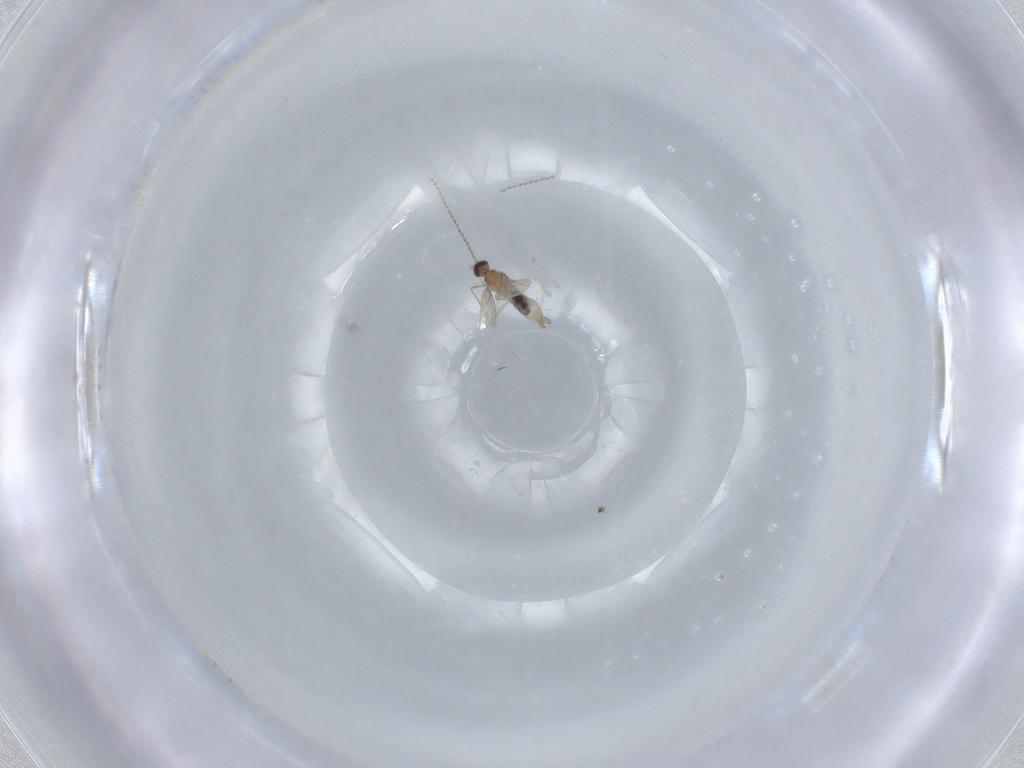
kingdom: Animalia
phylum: Arthropoda
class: Insecta
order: Diptera
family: Cecidomyiidae
